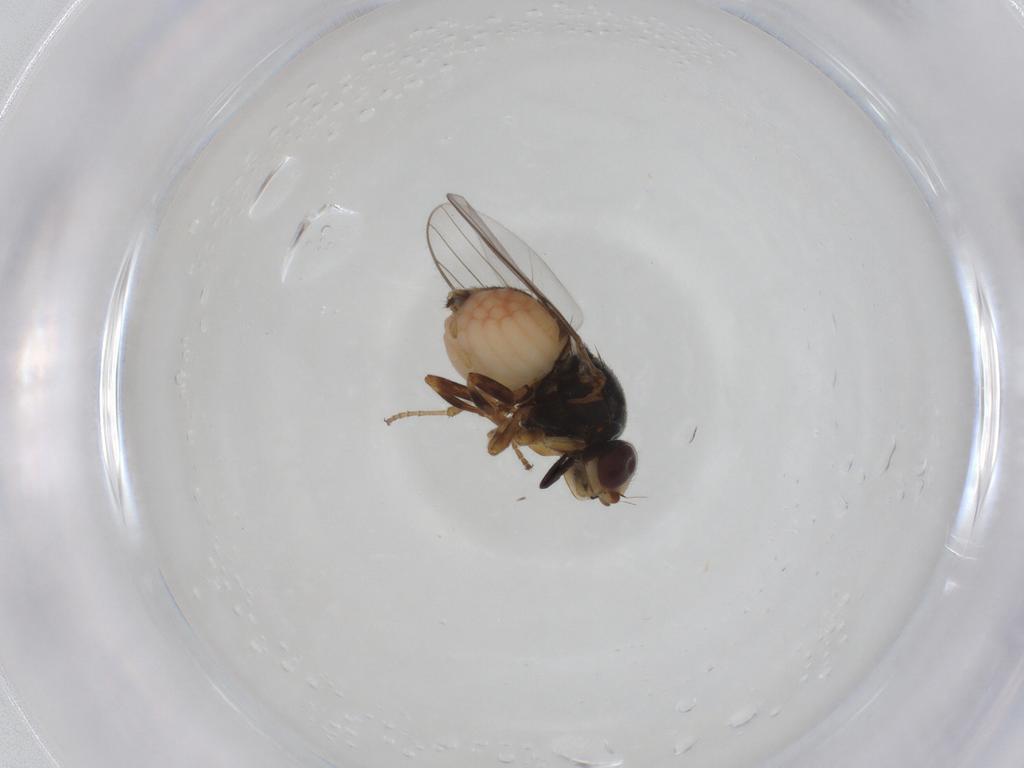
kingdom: Animalia
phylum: Arthropoda
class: Insecta
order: Diptera
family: Chloropidae
